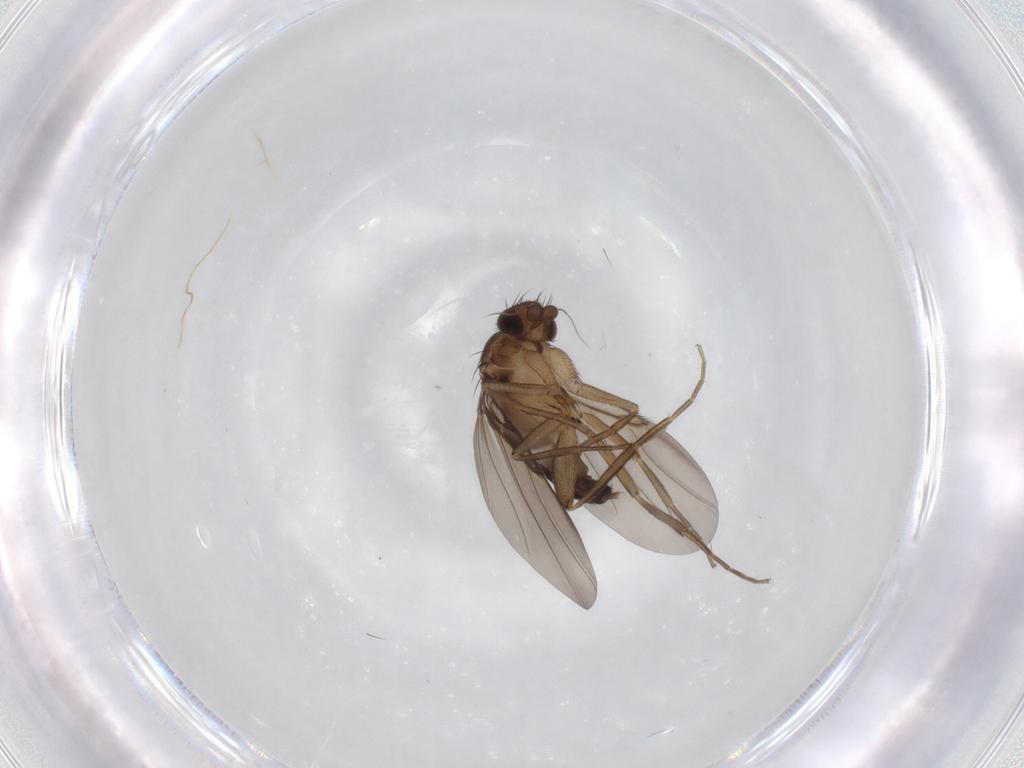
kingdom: Animalia
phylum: Arthropoda
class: Insecta
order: Diptera
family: Phoridae
